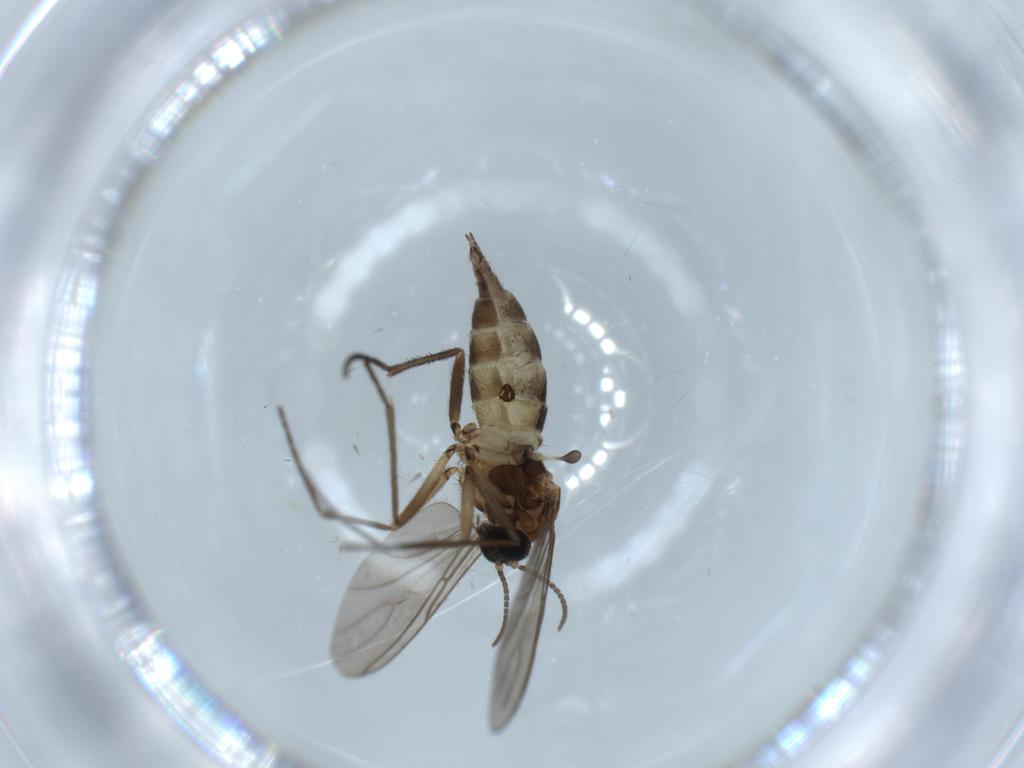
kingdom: Animalia
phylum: Arthropoda
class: Insecta
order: Diptera
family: Sciaridae
